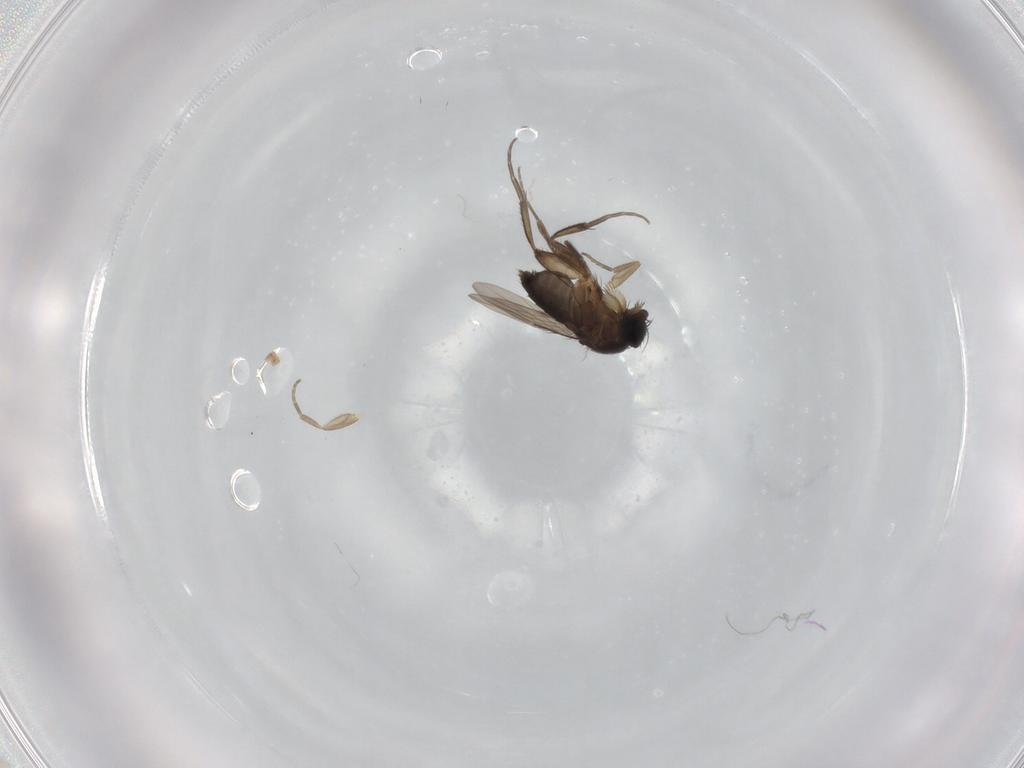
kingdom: Animalia
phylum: Arthropoda
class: Insecta
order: Diptera
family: Phoridae
